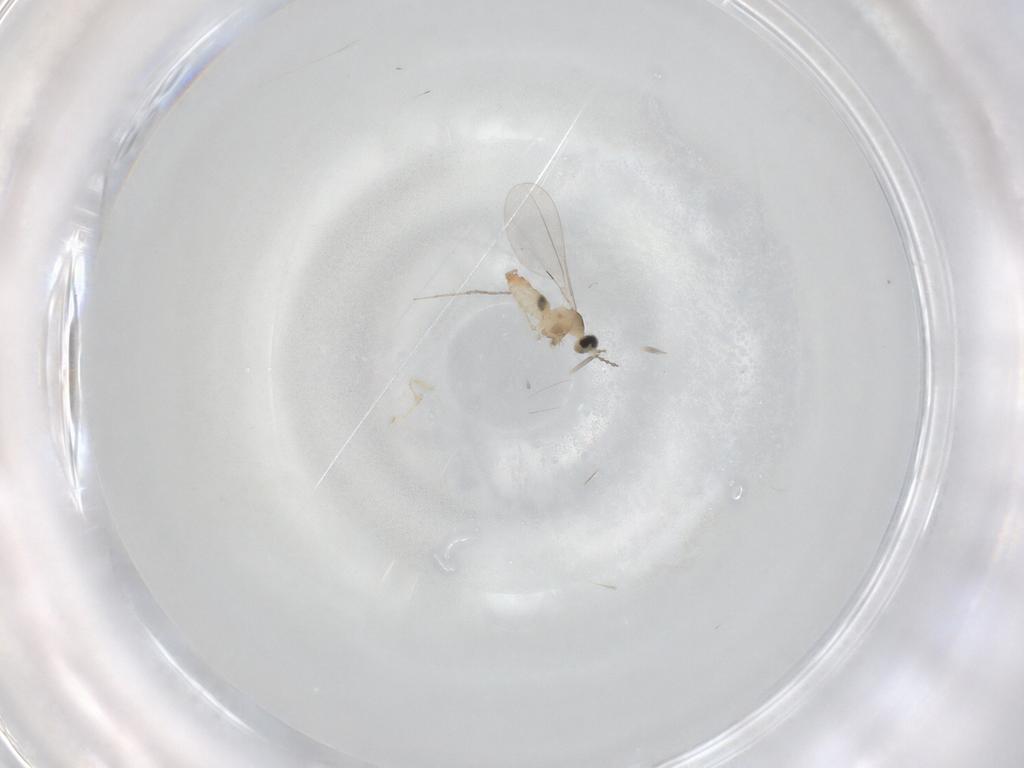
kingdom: Animalia
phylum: Arthropoda
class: Insecta
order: Diptera
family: Cecidomyiidae
